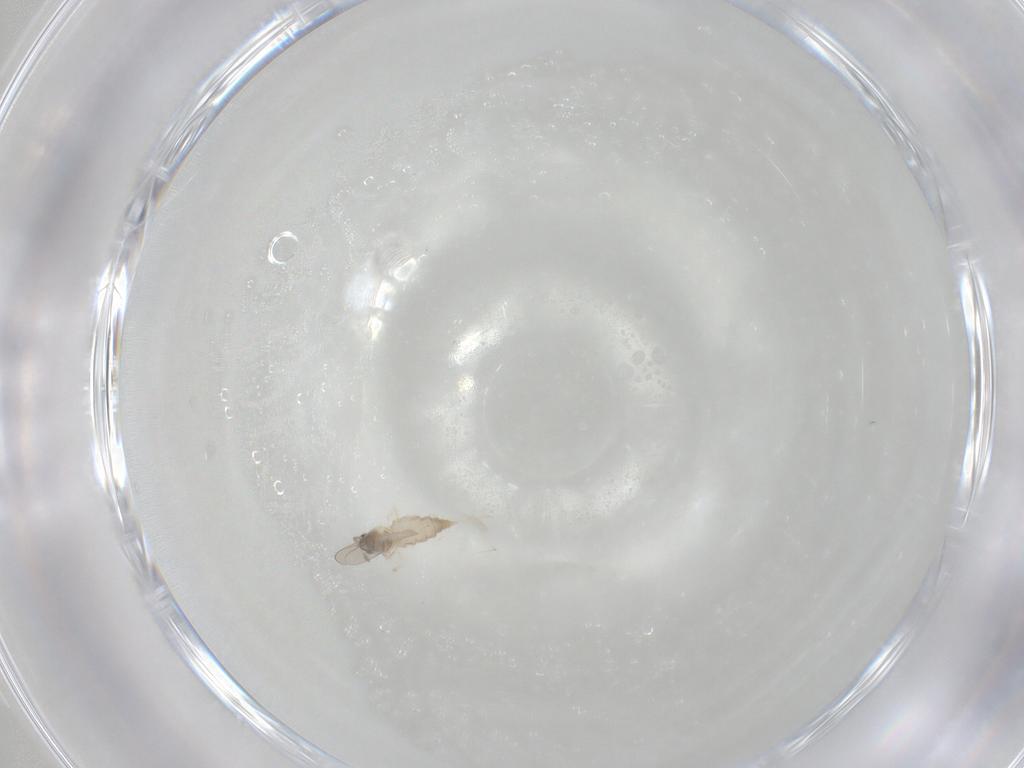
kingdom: Animalia
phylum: Arthropoda
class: Insecta
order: Diptera
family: Cecidomyiidae
